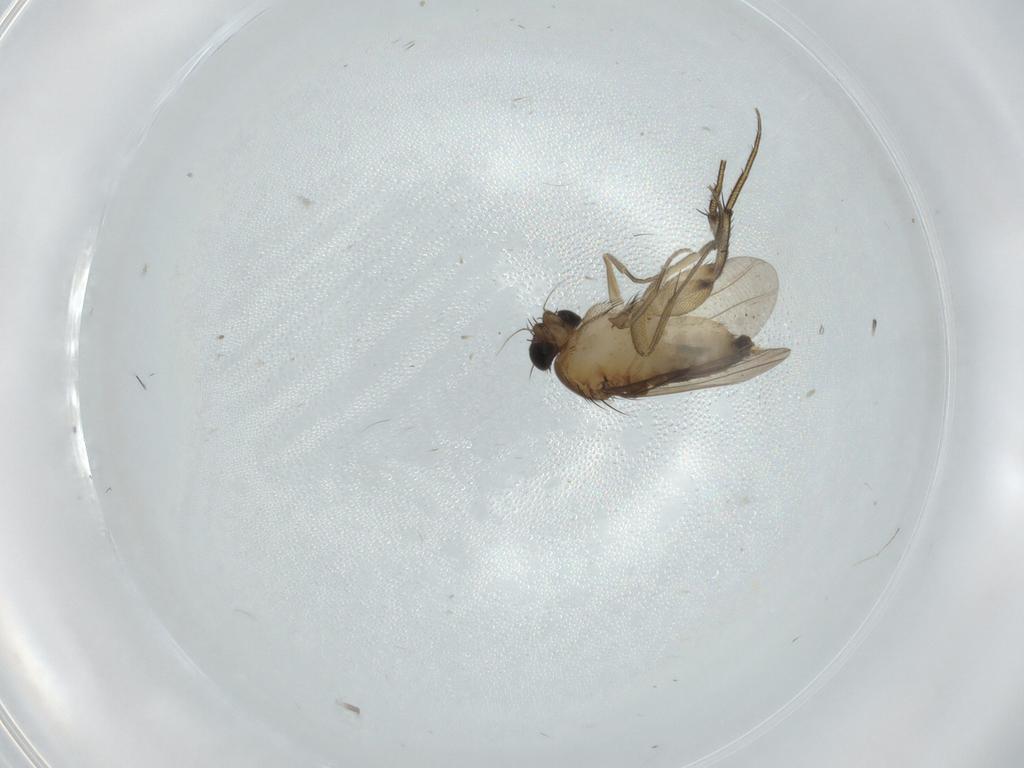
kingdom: Animalia
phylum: Arthropoda
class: Insecta
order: Diptera
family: Phoridae
